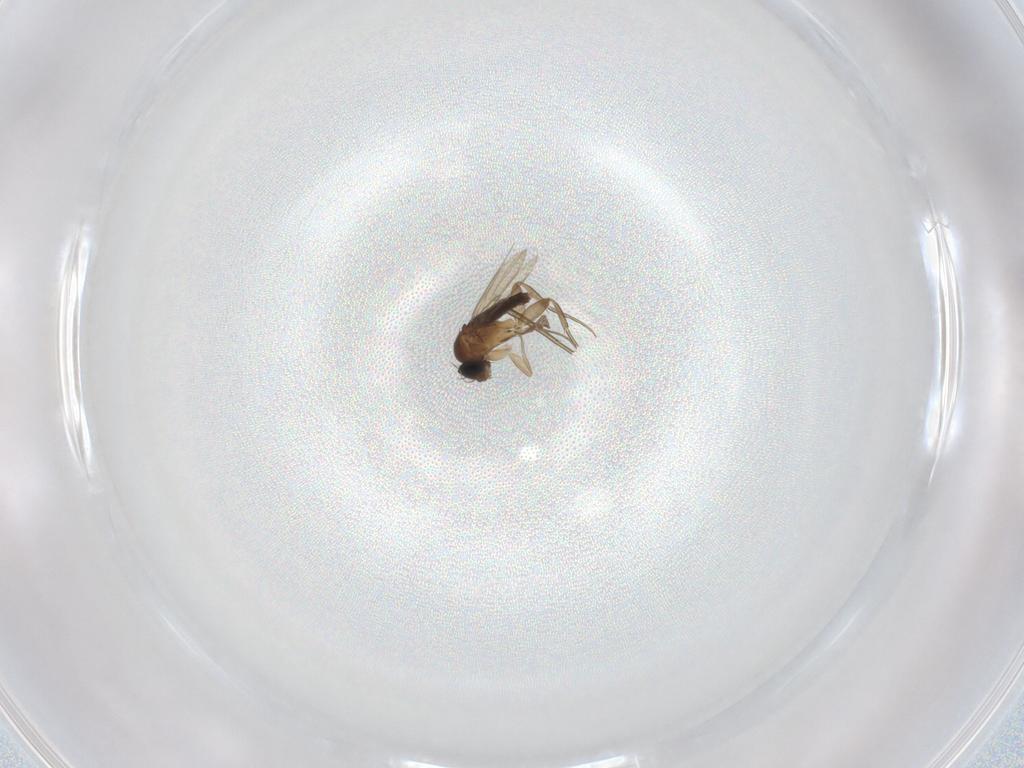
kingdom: Animalia
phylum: Arthropoda
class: Insecta
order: Diptera
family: Phoridae
